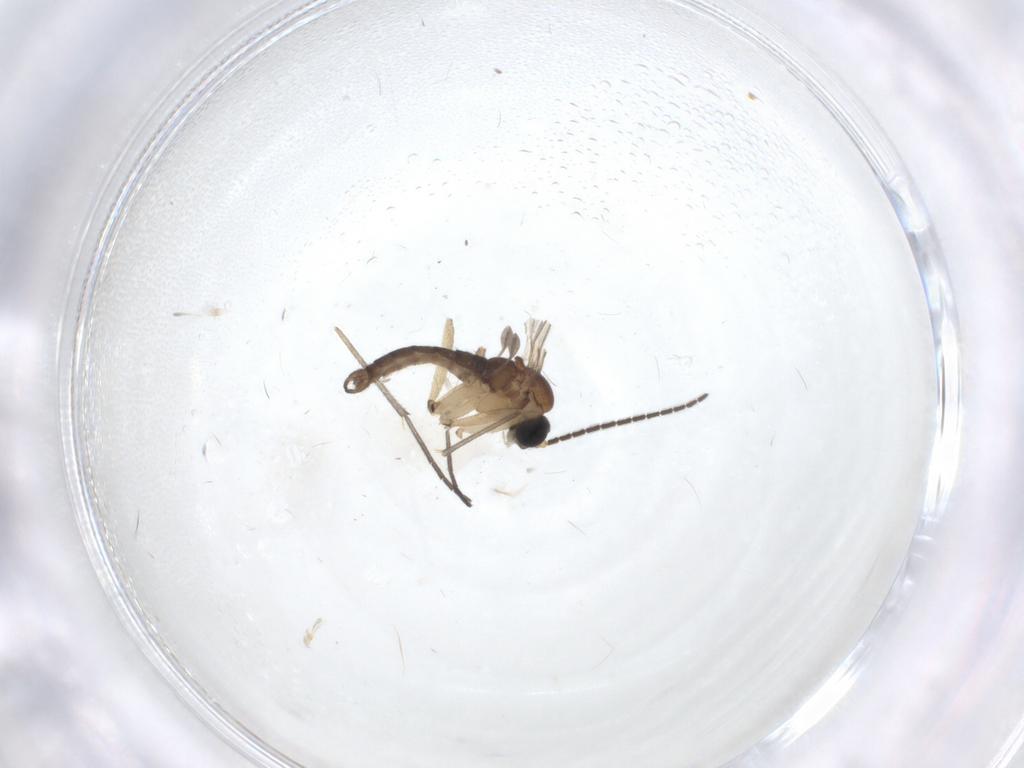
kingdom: Animalia
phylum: Arthropoda
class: Insecta
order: Diptera
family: Sciaridae
